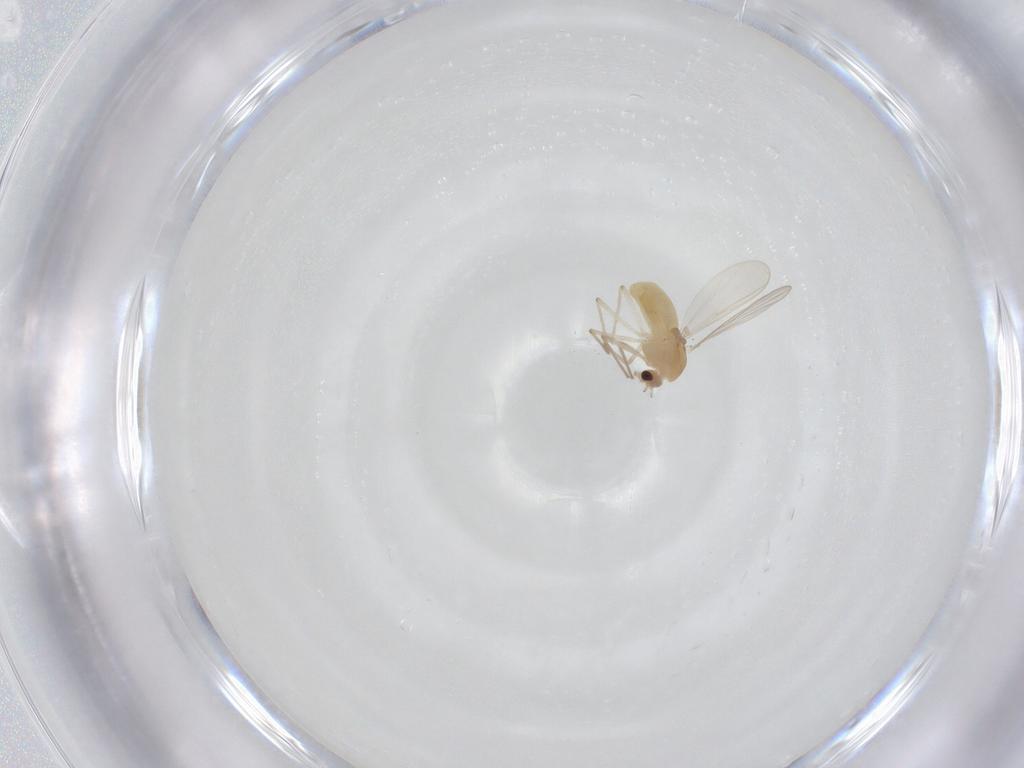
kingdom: Animalia
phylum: Arthropoda
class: Insecta
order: Diptera
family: Chironomidae
